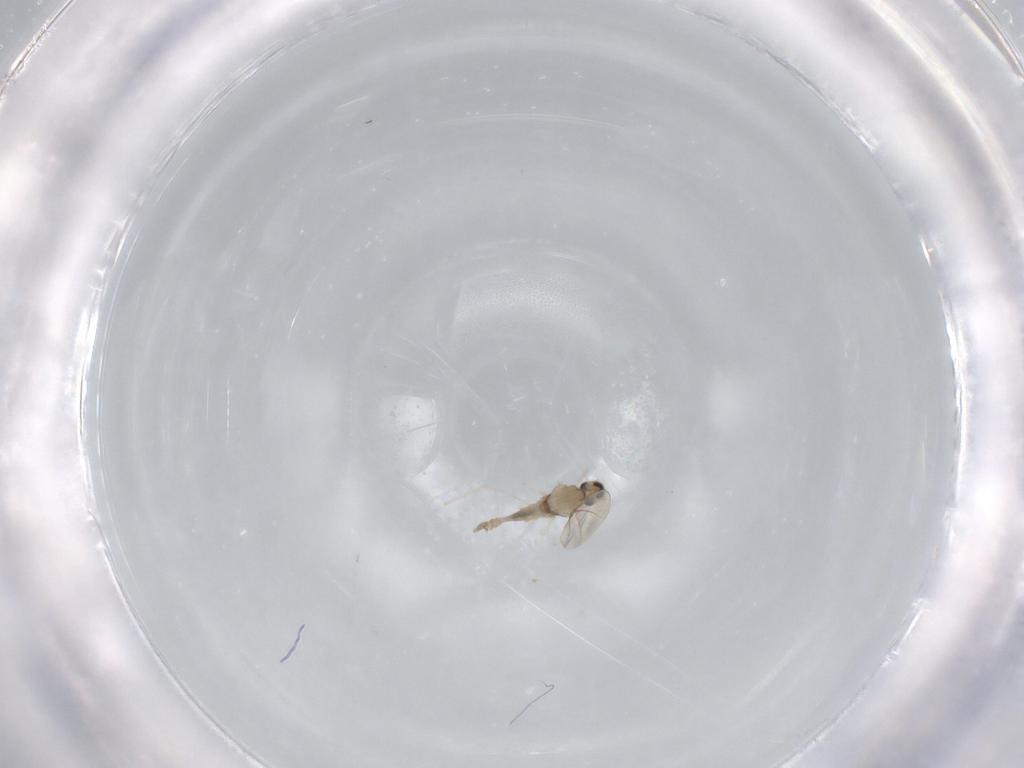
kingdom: Animalia
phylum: Arthropoda
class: Insecta
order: Diptera
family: Cecidomyiidae
